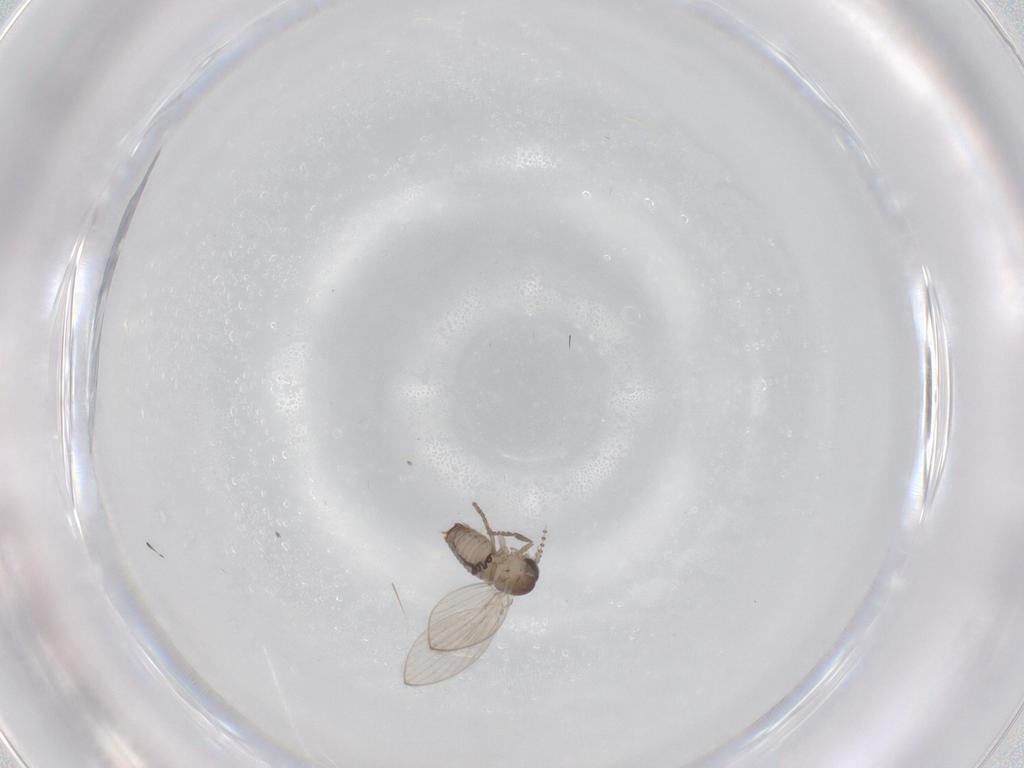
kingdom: Animalia
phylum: Arthropoda
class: Insecta
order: Diptera
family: Psychodidae
